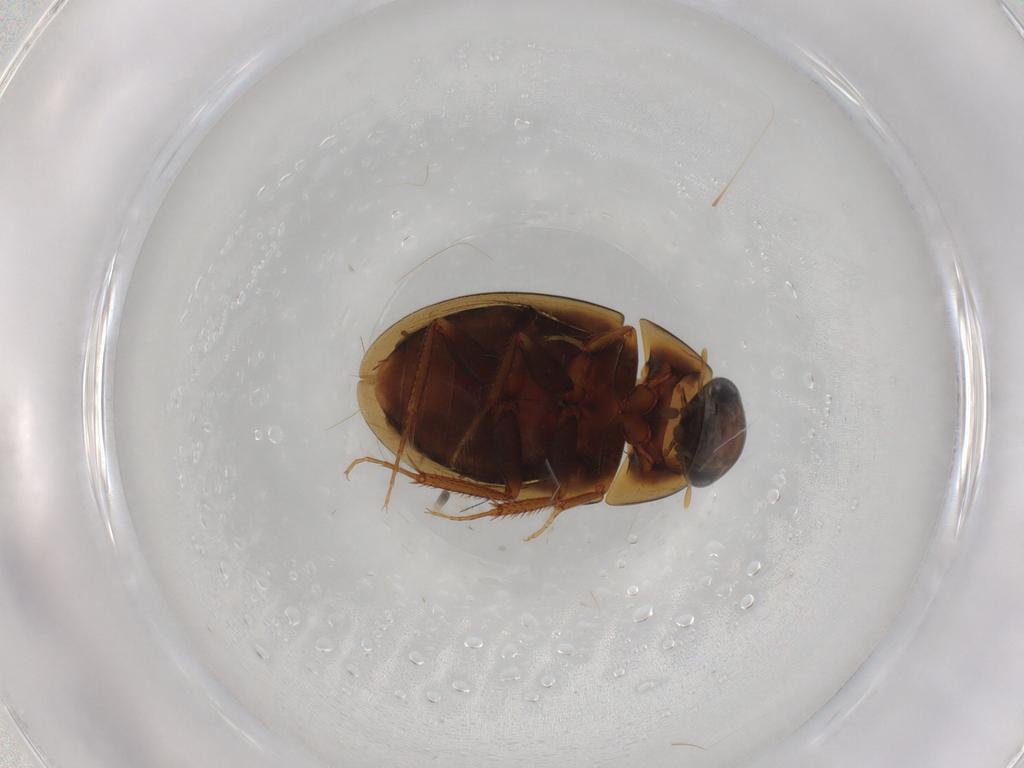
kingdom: Animalia
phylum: Arthropoda
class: Insecta
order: Coleoptera
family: Hydrophilidae
